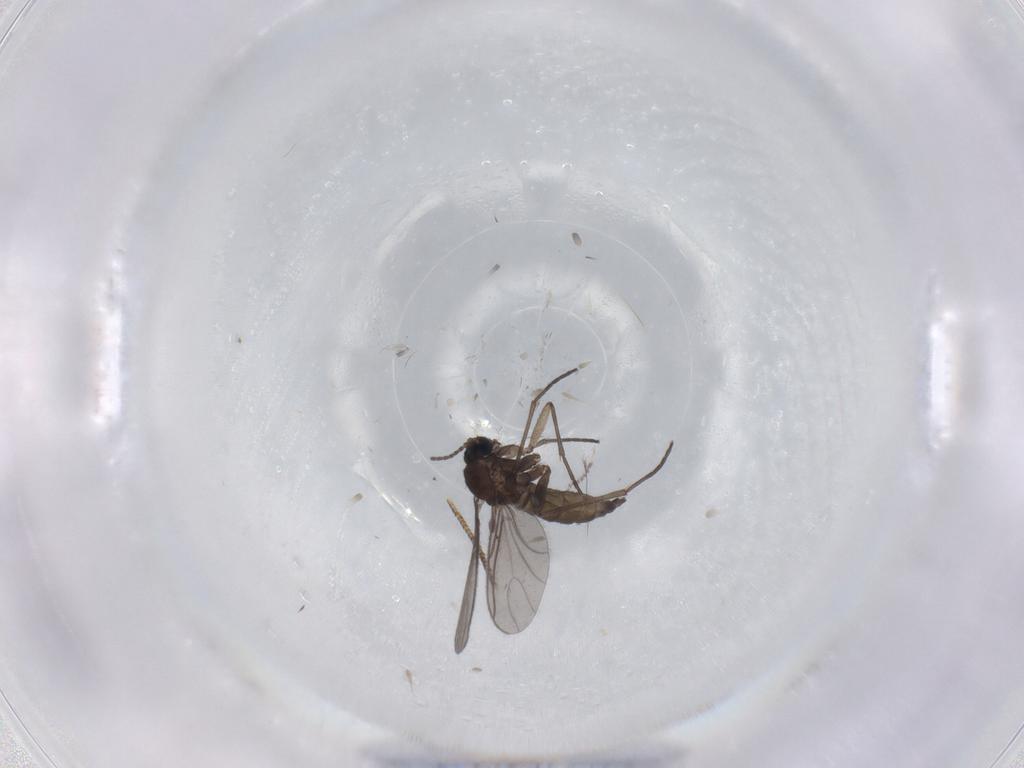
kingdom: Animalia
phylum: Arthropoda
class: Insecta
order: Diptera
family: Sciaridae
